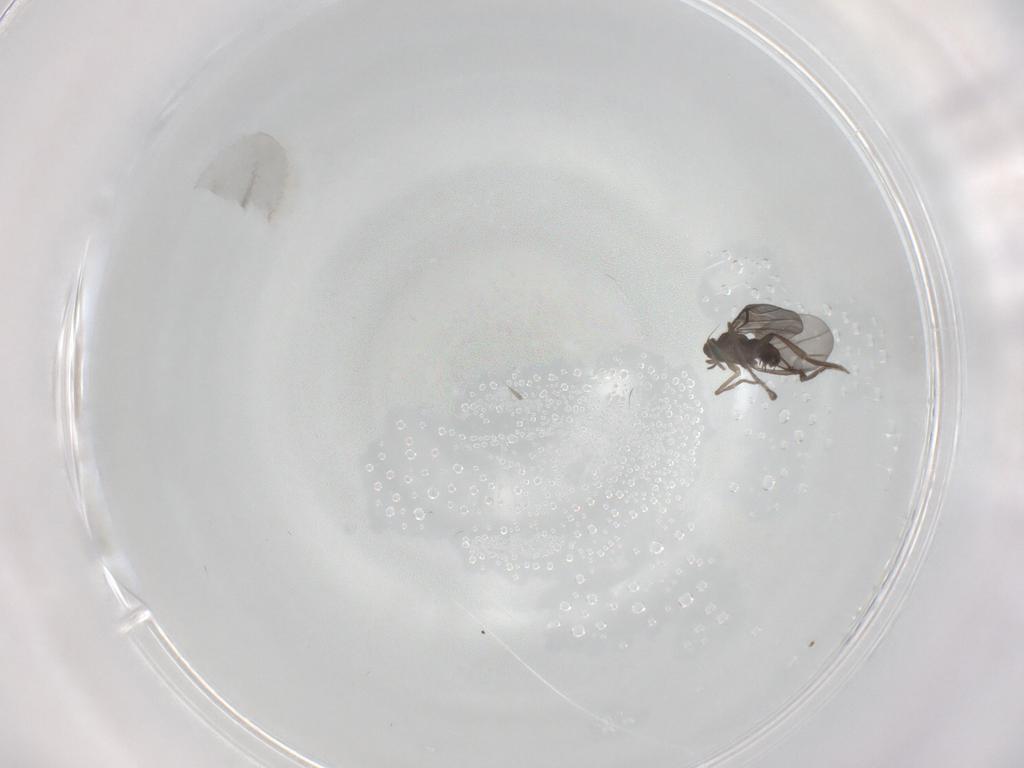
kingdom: Animalia
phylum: Arthropoda
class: Insecta
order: Diptera
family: Phoridae
